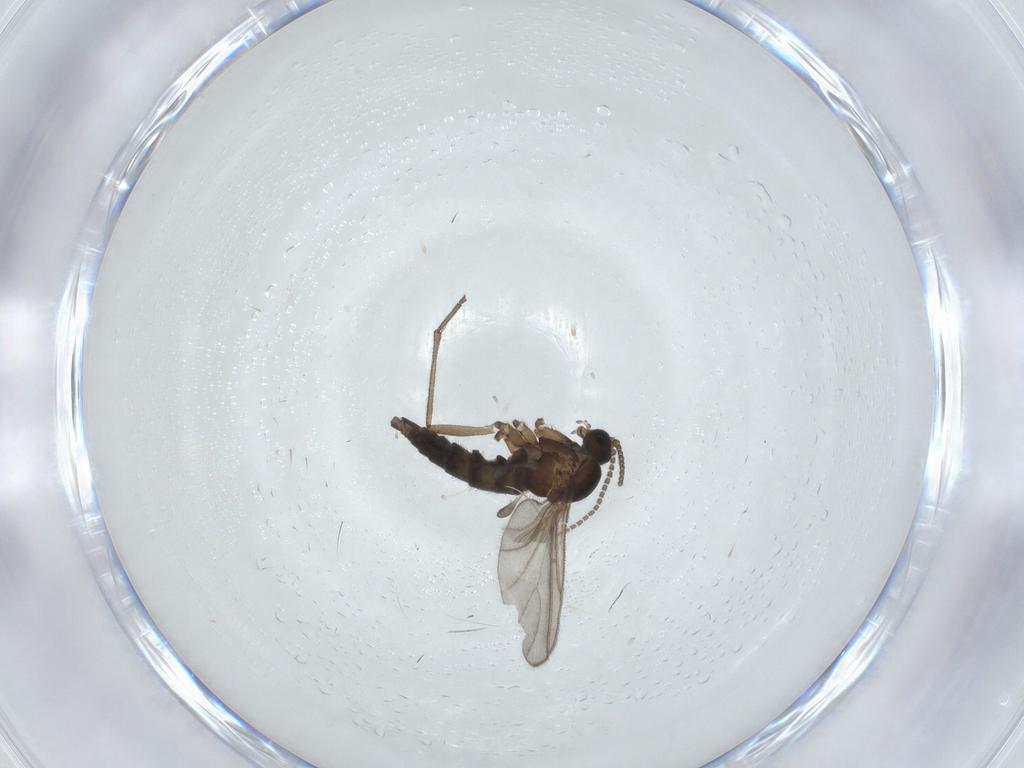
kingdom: Animalia
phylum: Arthropoda
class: Insecta
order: Diptera
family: Sciaridae
